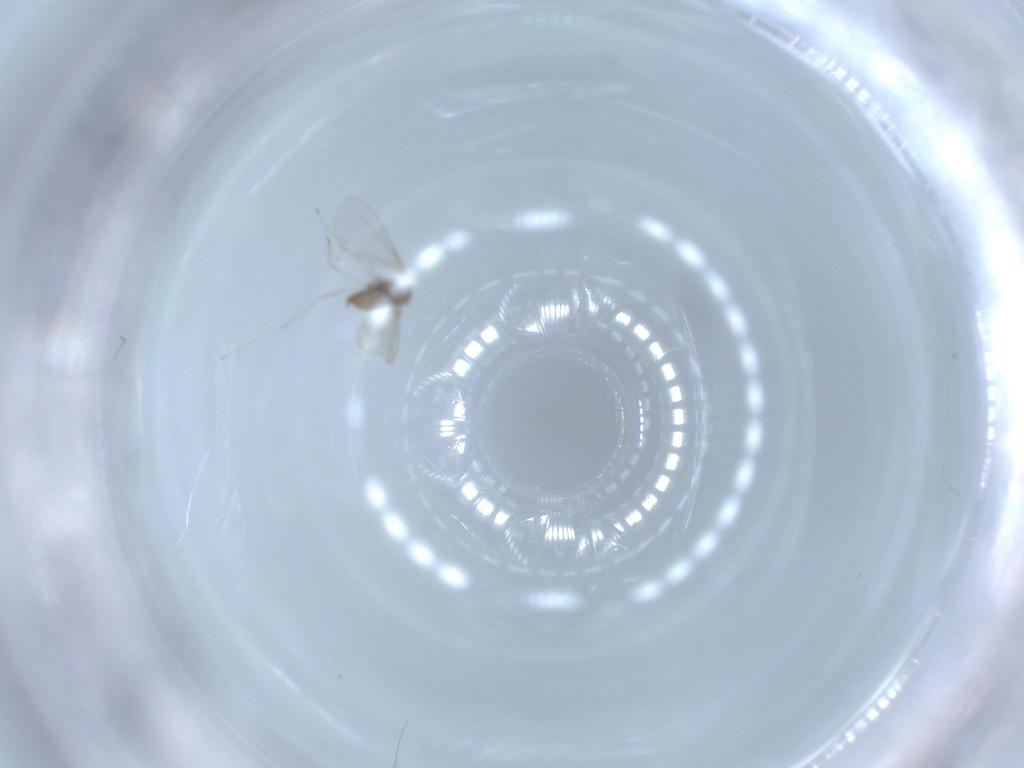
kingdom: Animalia
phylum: Arthropoda
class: Insecta
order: Diptera
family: Cecidomyiidae
